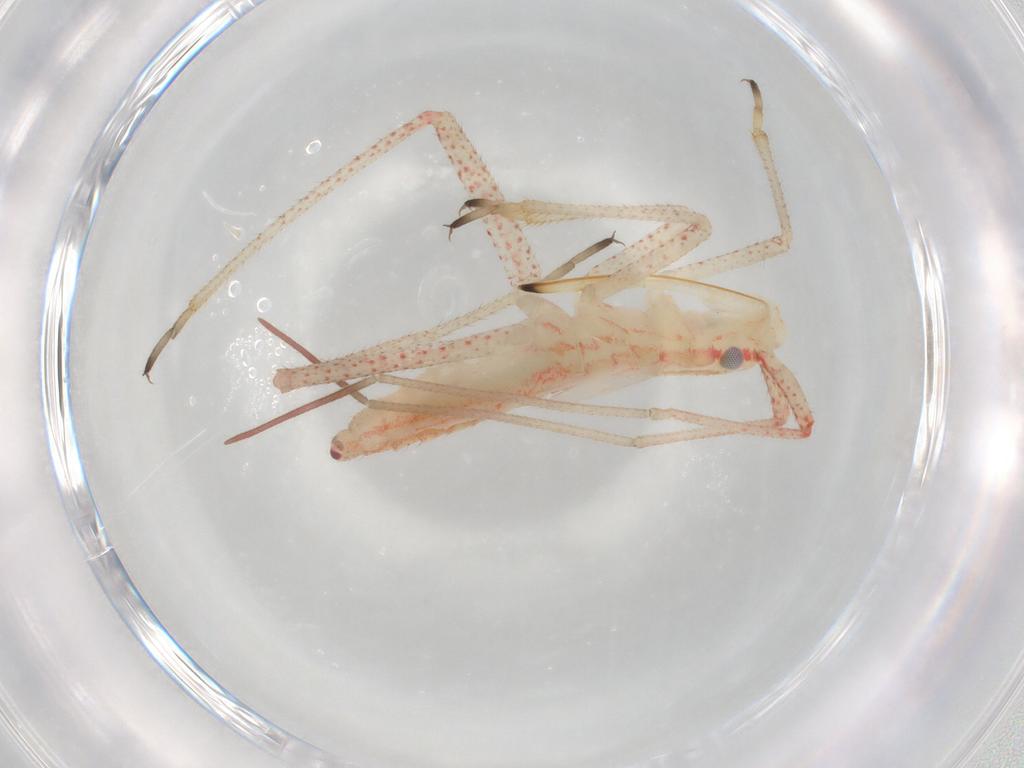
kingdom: Animalia
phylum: Arthropoda
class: Insecta
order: Hemiptera
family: Miridae
